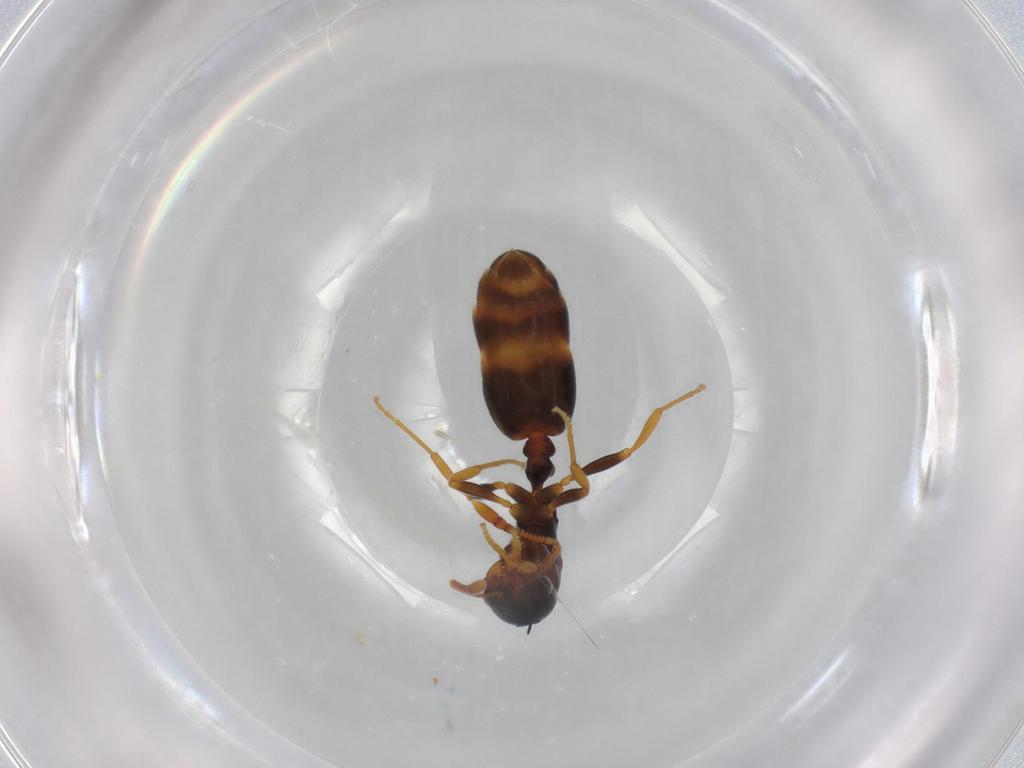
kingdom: Animalia
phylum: Arthropoda
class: Insecta
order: Hymenoptera
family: Formicidae
